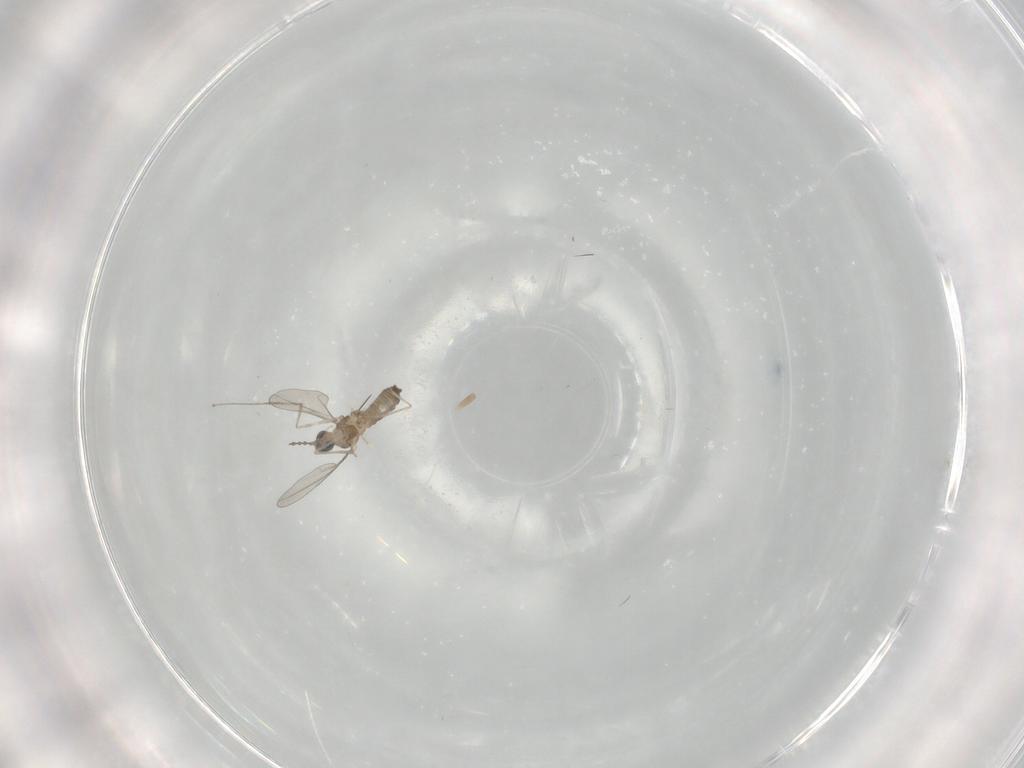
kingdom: Animalia
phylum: Arthropoda
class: Insecta
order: Diptera
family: Cecidomyiidae
